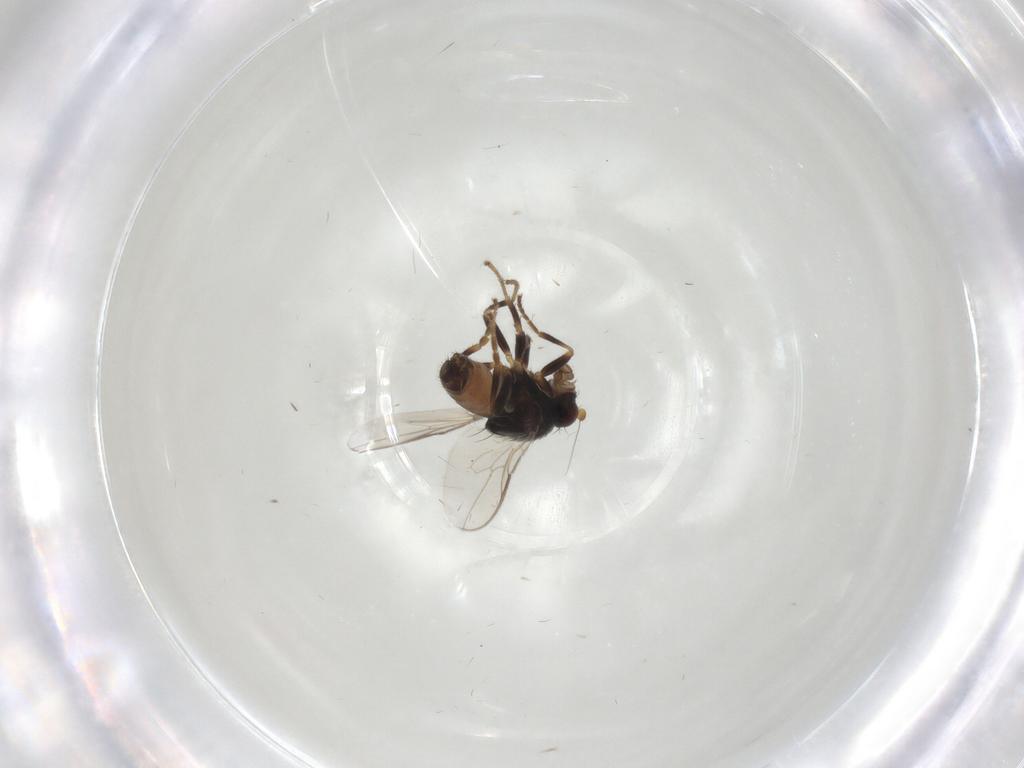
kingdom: Animalia
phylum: Arthropoda
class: Insecta
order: Diptera
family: Sphaeroceridae
